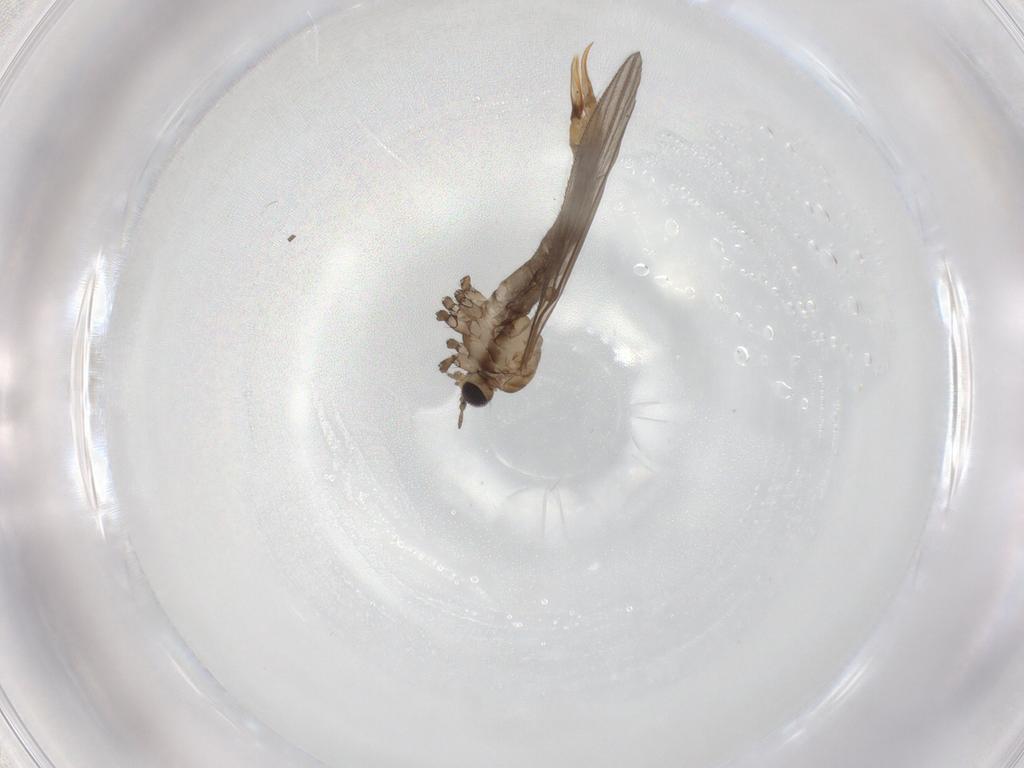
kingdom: Animalia
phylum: Arthropoda
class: Insecta
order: Diptera
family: Limoniidae
